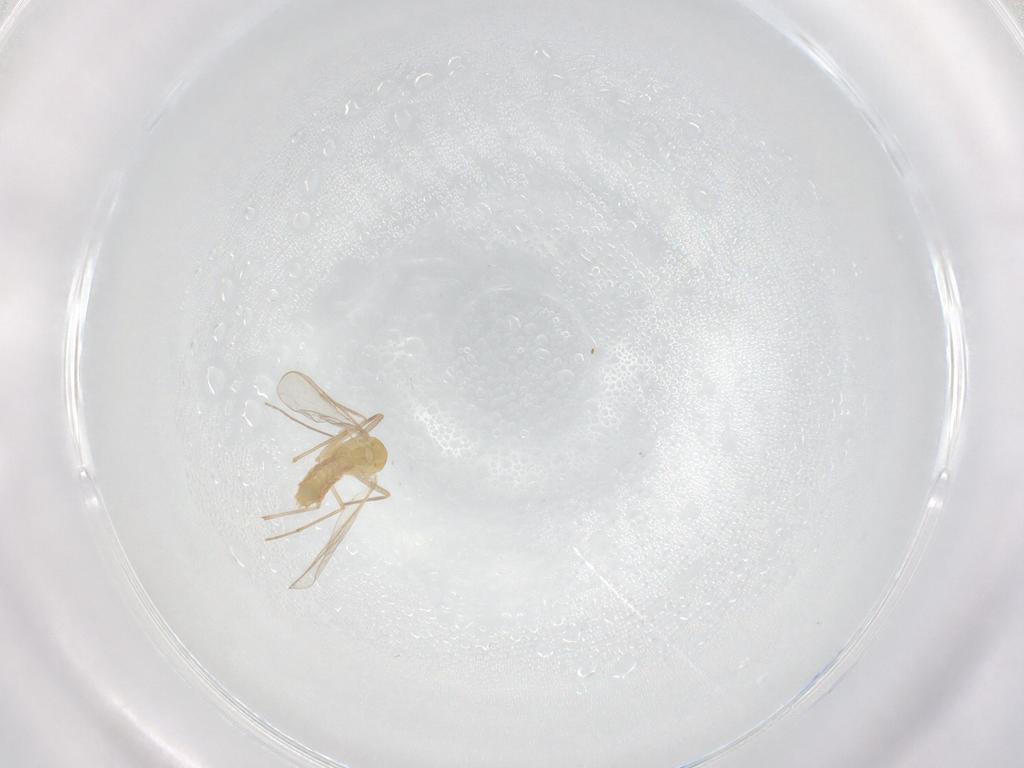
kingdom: Animalia
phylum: Arthropoda
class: Insecta
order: Diptera
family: Chironomidae
